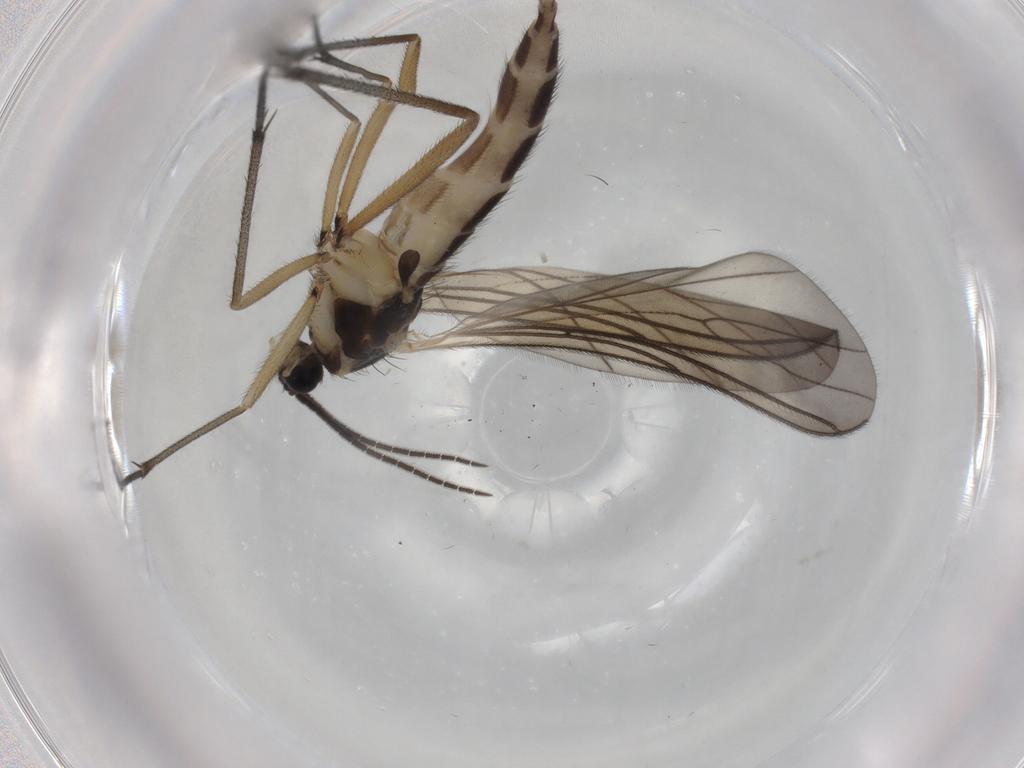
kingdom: Animalia
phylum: Arthropoda
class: Insecta
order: Diptera
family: Sciaridae
